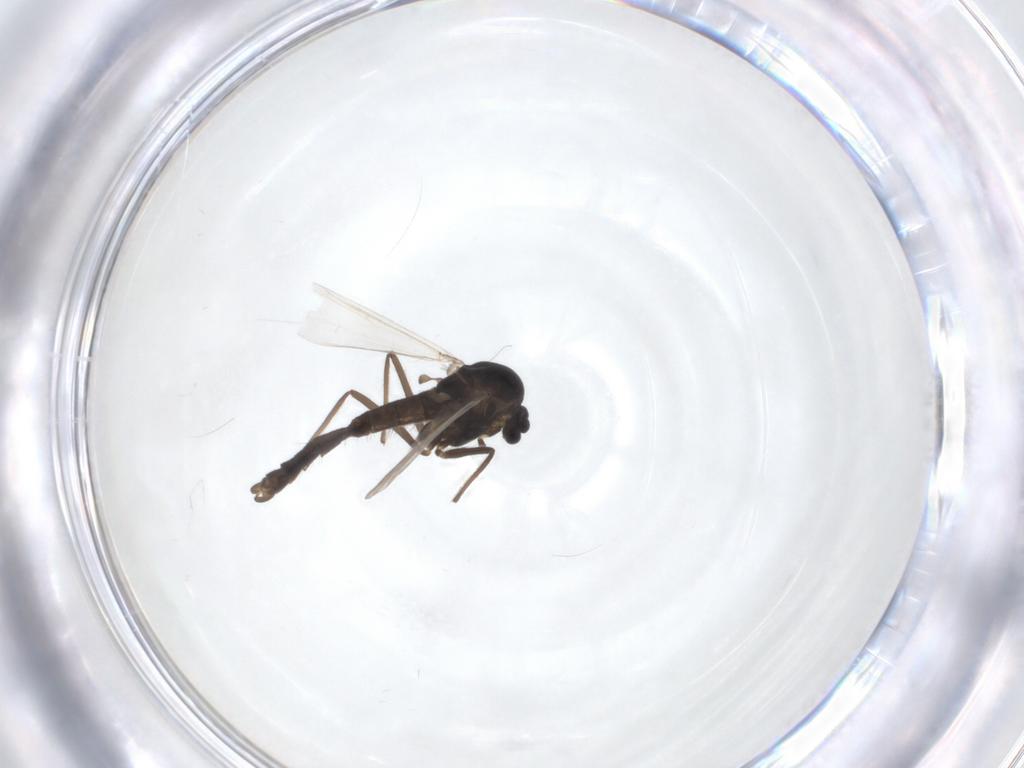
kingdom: Animalia
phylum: Arthropoda
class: Insecta
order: Diptera
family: Chironomidae
